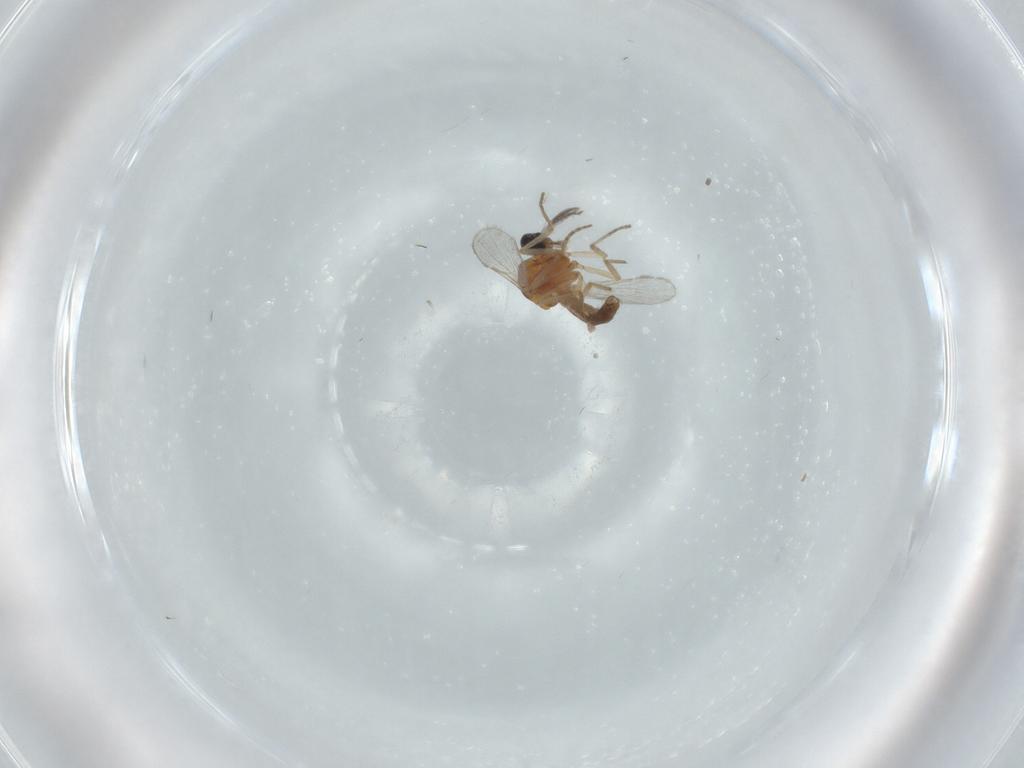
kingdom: Animalia
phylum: Arthropoda
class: Insecta
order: Diptera
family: Ceratopogonidae
